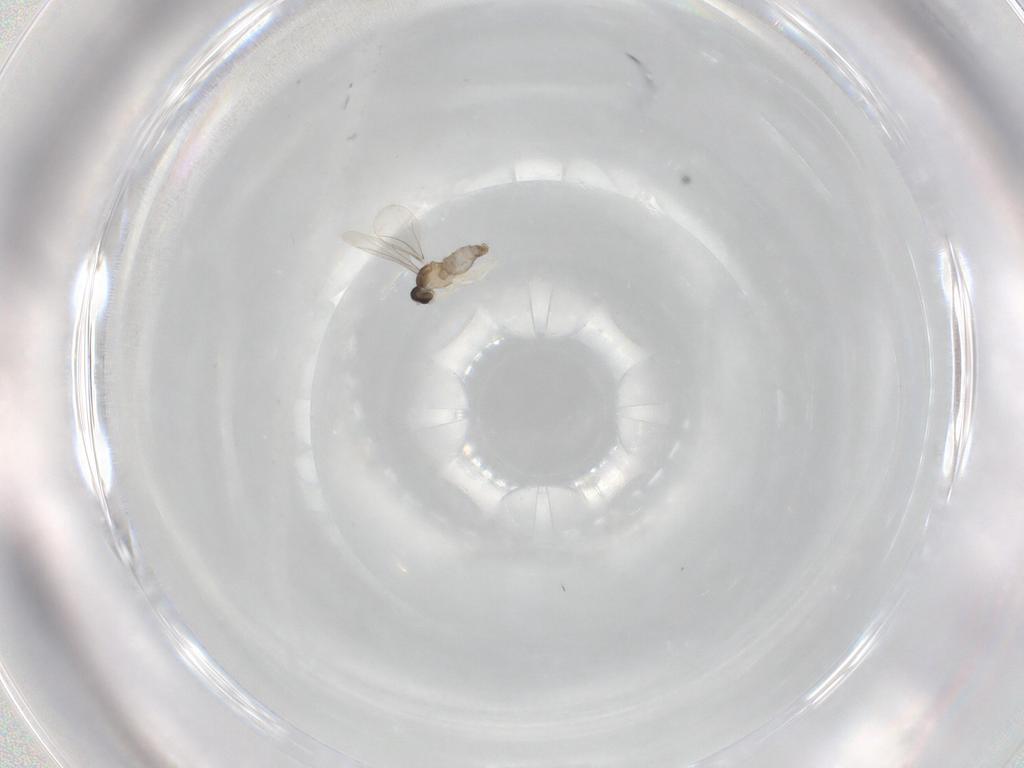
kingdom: Animalia
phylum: Arthropoda
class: Insecta
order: Diptera
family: Cecidomyiidae
